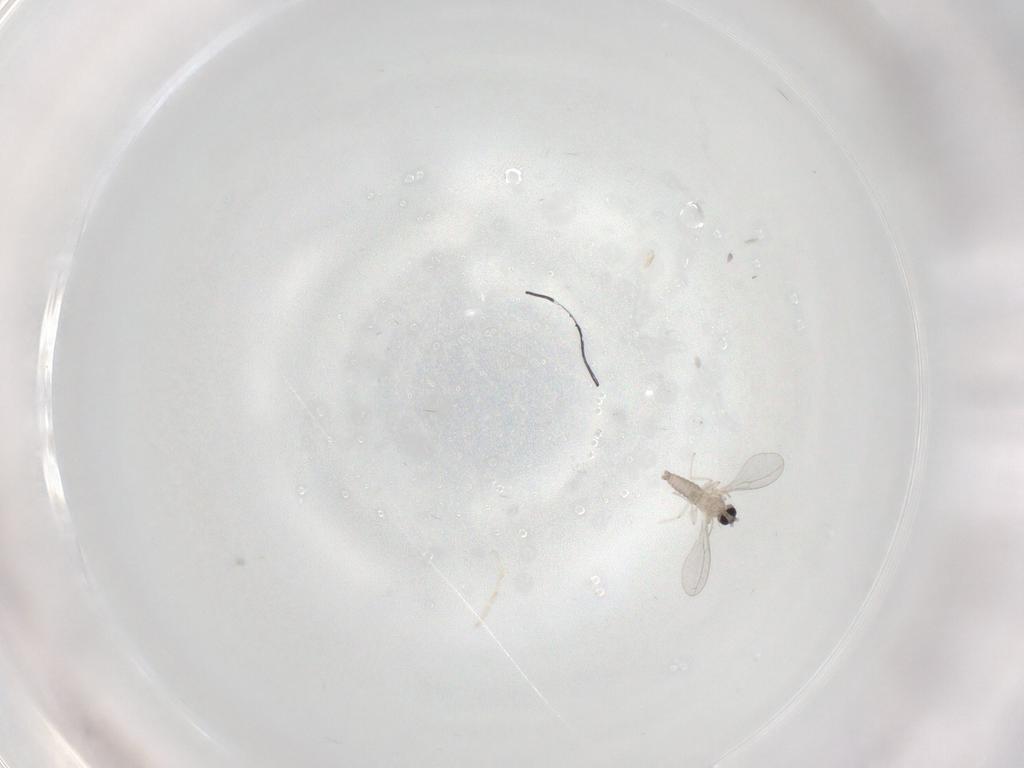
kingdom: Animalia
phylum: Arthropoda
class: Insecta
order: Diptera
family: Cecidomyiidae
